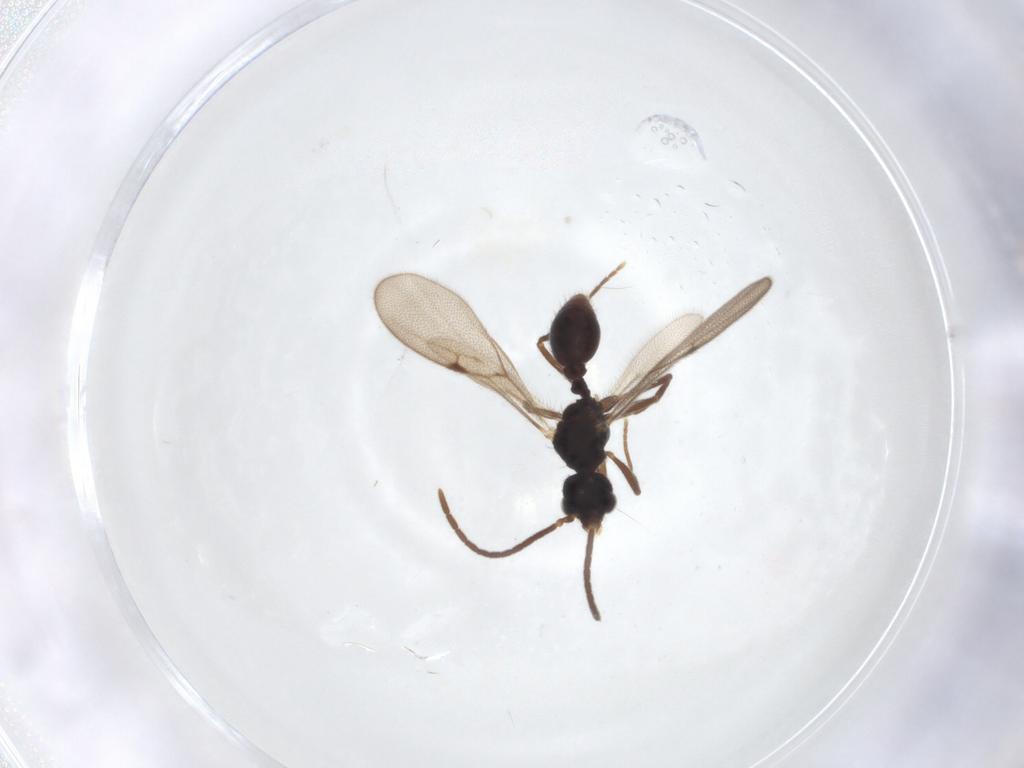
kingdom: Animalia
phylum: Arthropoda
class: Insecta
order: Hymenoptera
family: Formicidae
